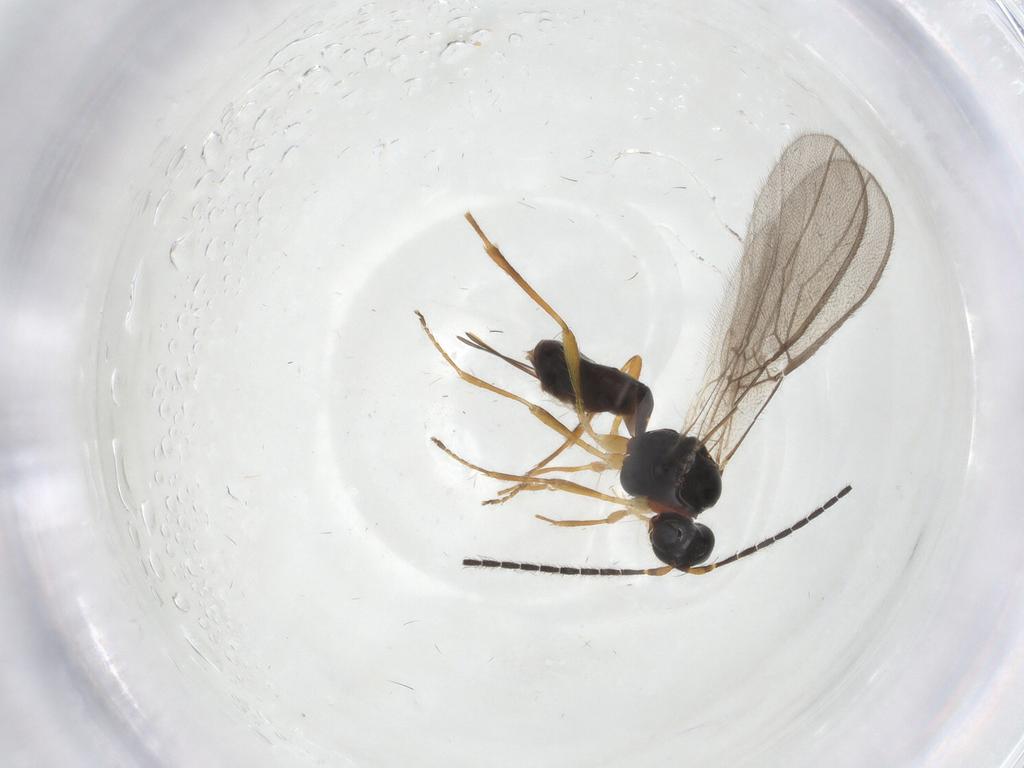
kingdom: Animalia
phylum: Arthropoda
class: Insecta
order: Hymenoptera
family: Braconidae
